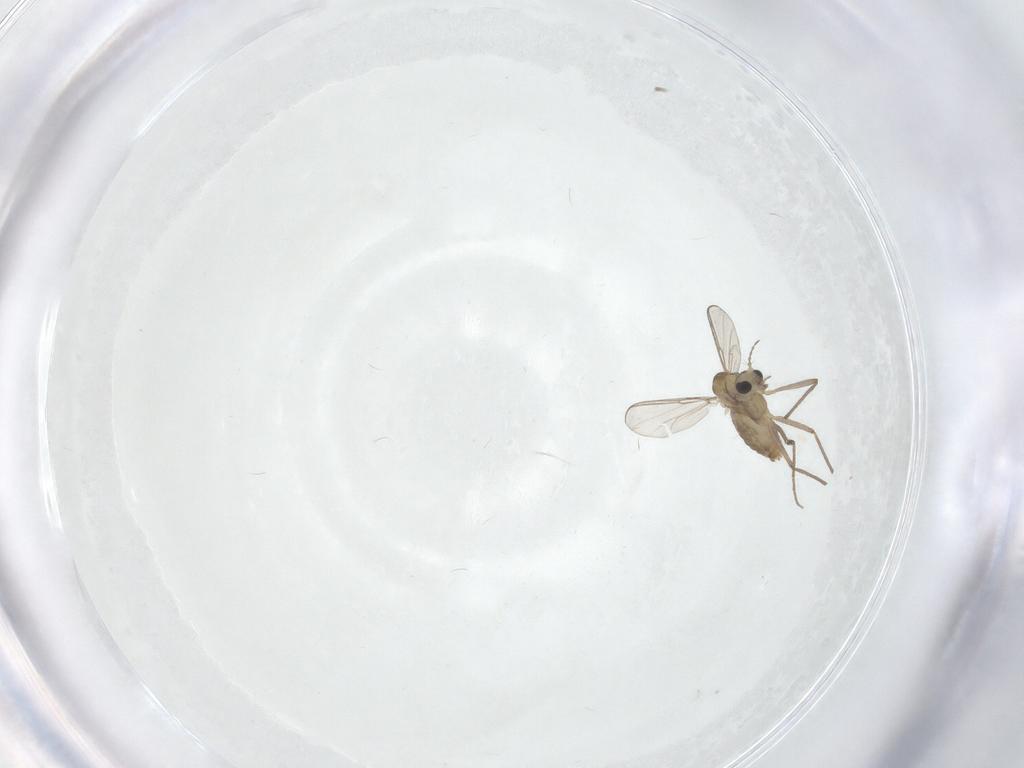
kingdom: Animalia
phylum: Arthropoda
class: Insecta
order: Diptera
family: Chironomidae
